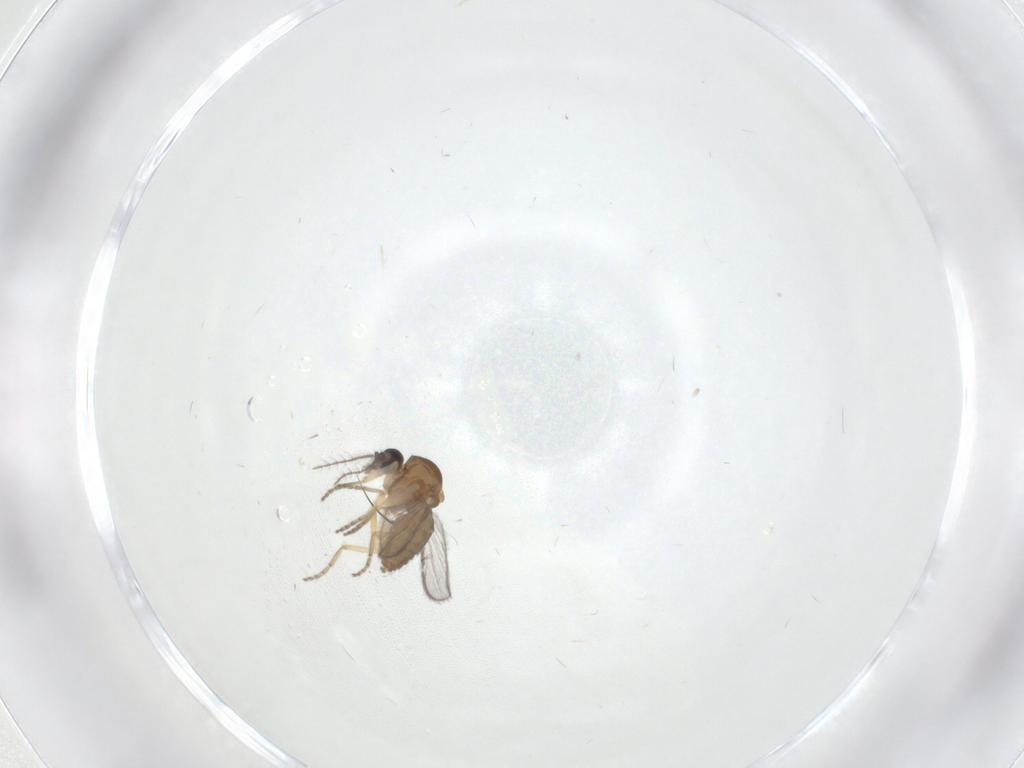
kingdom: Animalia
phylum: Arthropoda
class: Insecta
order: Diptera
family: Ceratopogonidae
